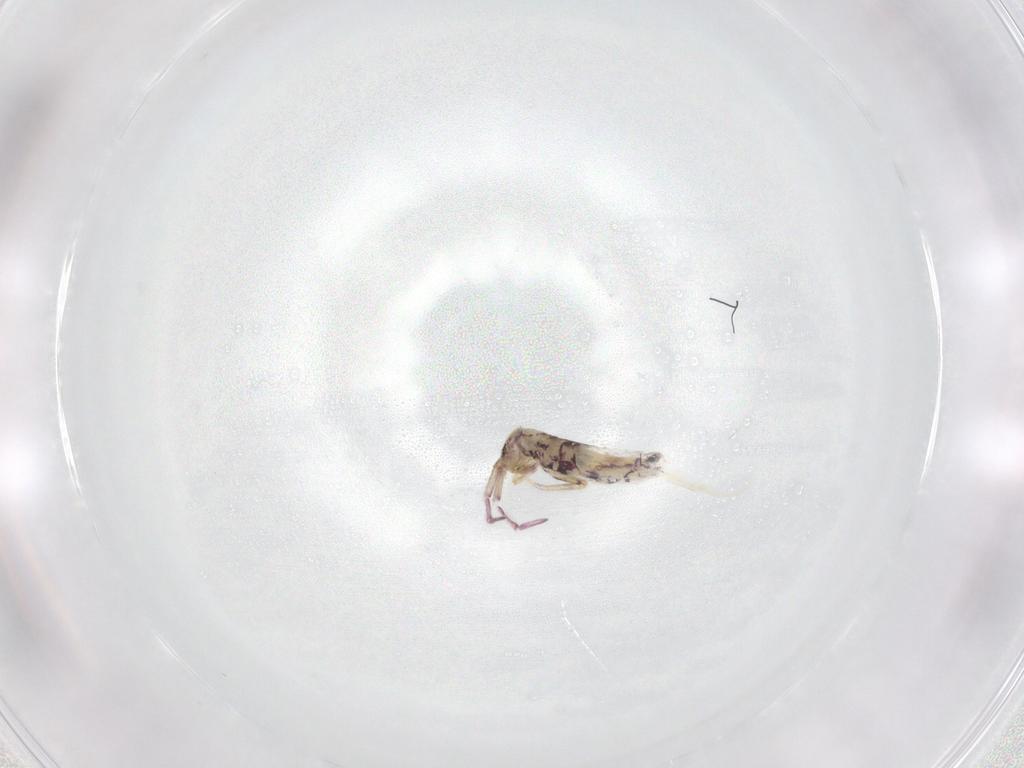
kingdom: Animalia
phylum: Arthropoda
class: Collembola
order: Entomobryomorpha
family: Entomobryidae
